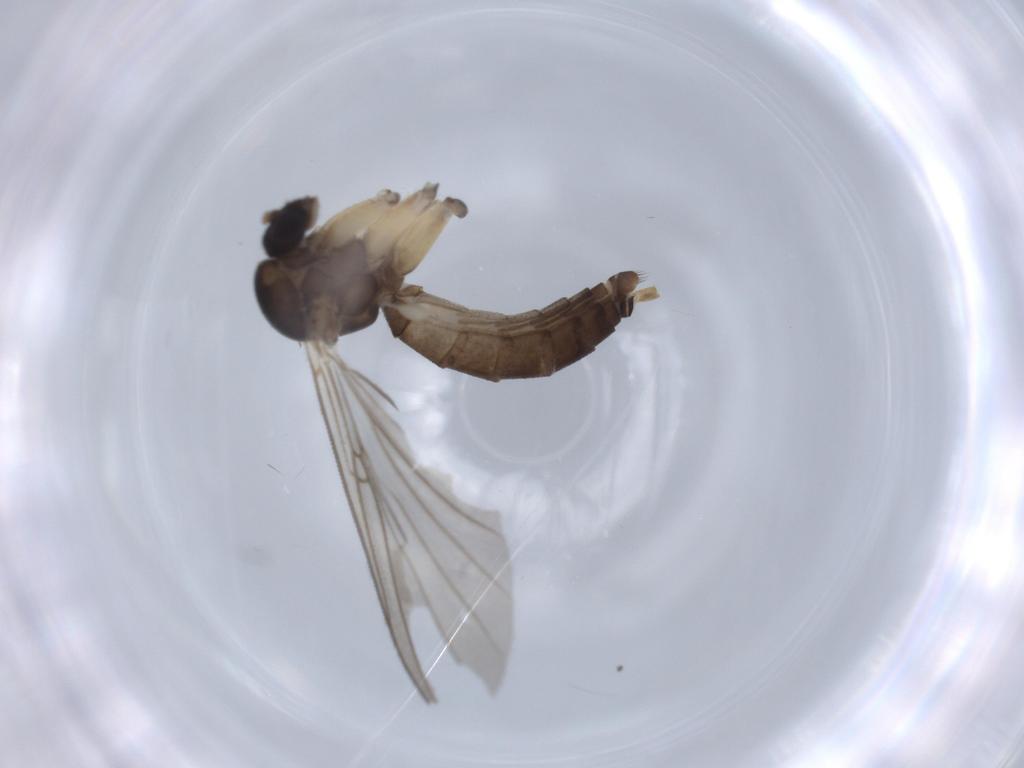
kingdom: Animalia
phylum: Arthropoda
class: Insecta
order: Diptera
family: Mycetophilidae
